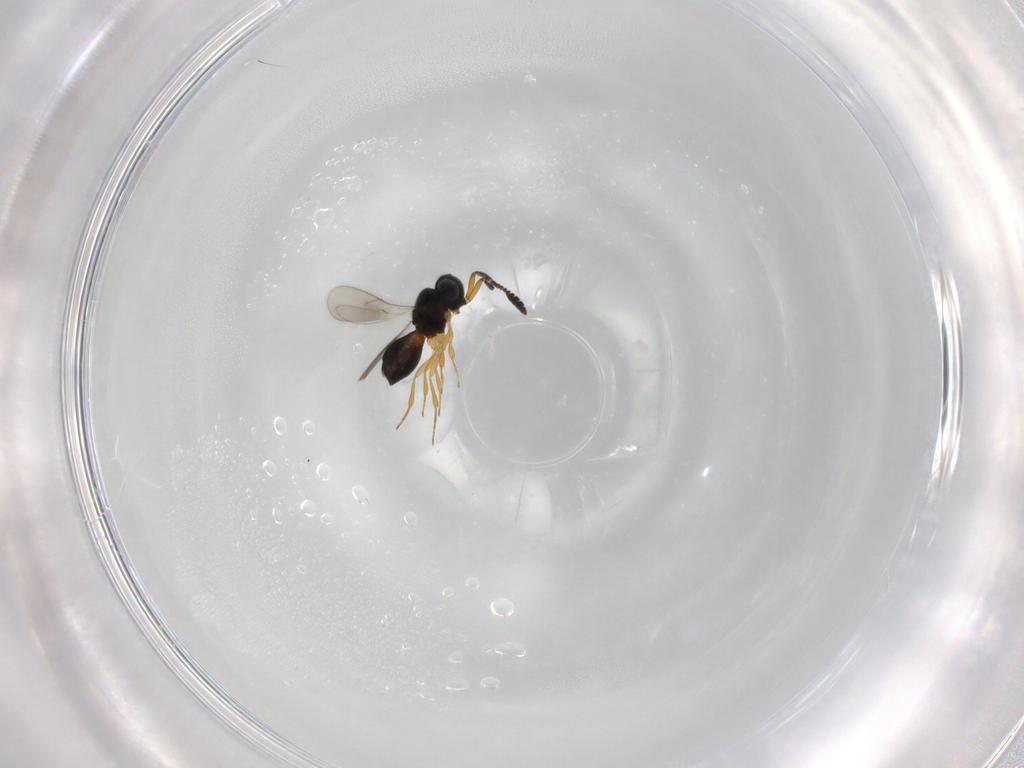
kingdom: Animalia
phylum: Arthropoda
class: Insecta
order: Hymenoptera
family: Scelionidae
